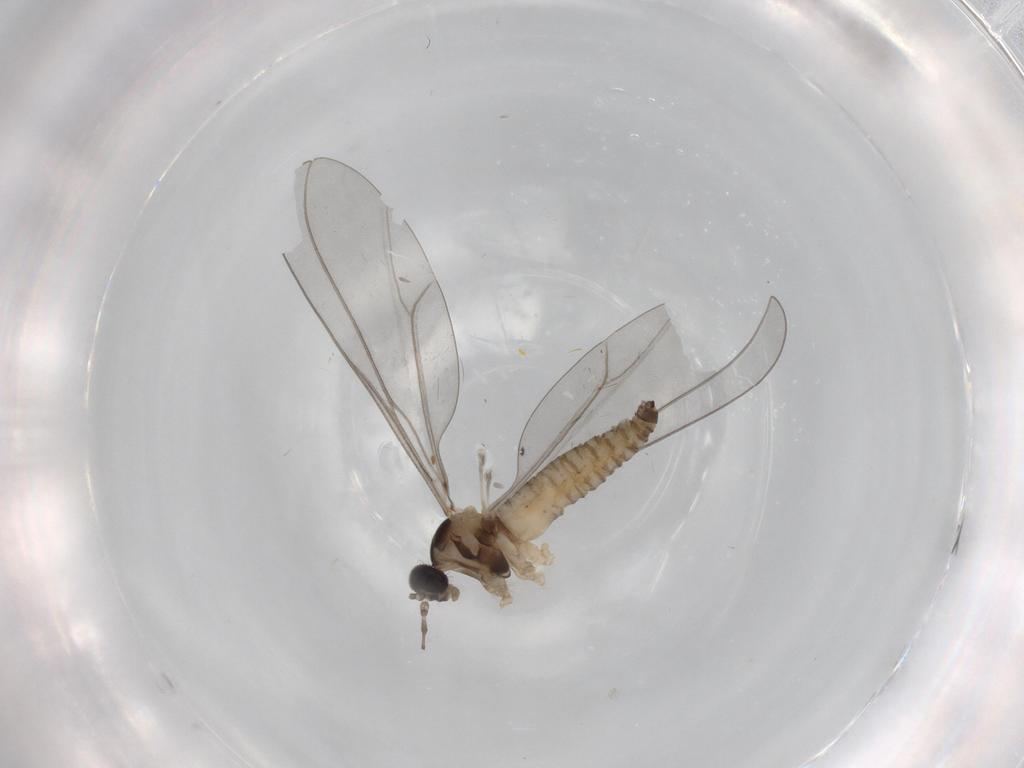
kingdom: Animalia
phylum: Arthropoda
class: Insecta
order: Diptera
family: Cecidomyiidae
